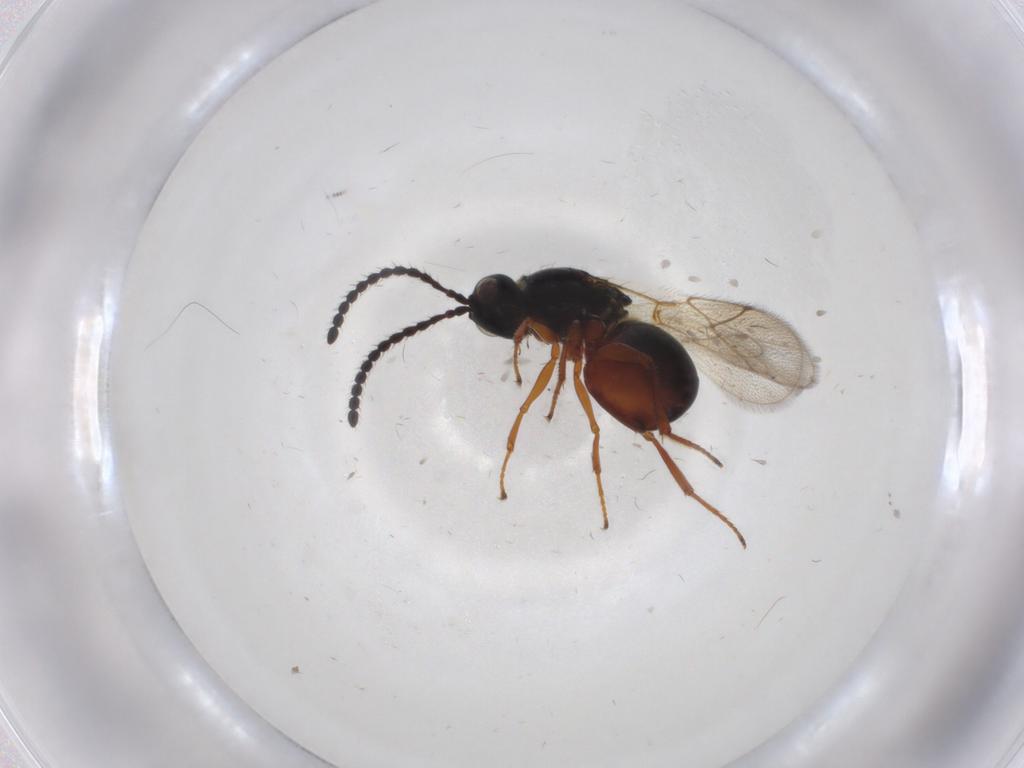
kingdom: Animalia
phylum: Arthropoda
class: Insecta
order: Hymenoptera
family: Figitidae
